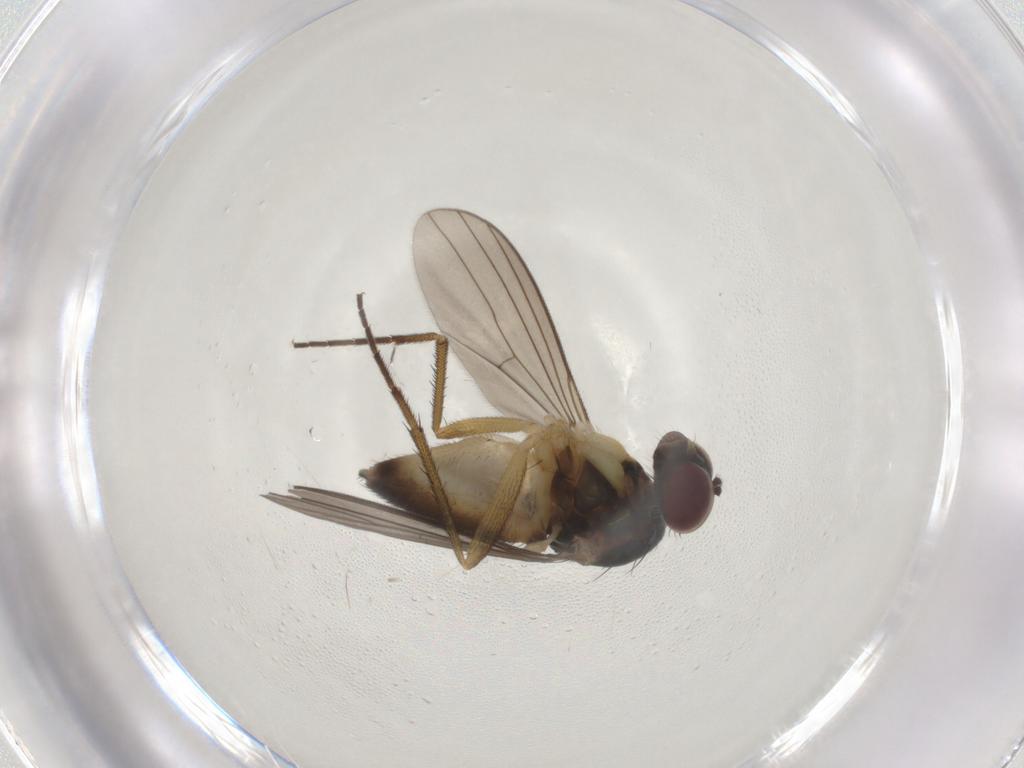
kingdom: Animalia
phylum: Arthropoda
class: Insecta
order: Diptera
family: Dolichopodidae
